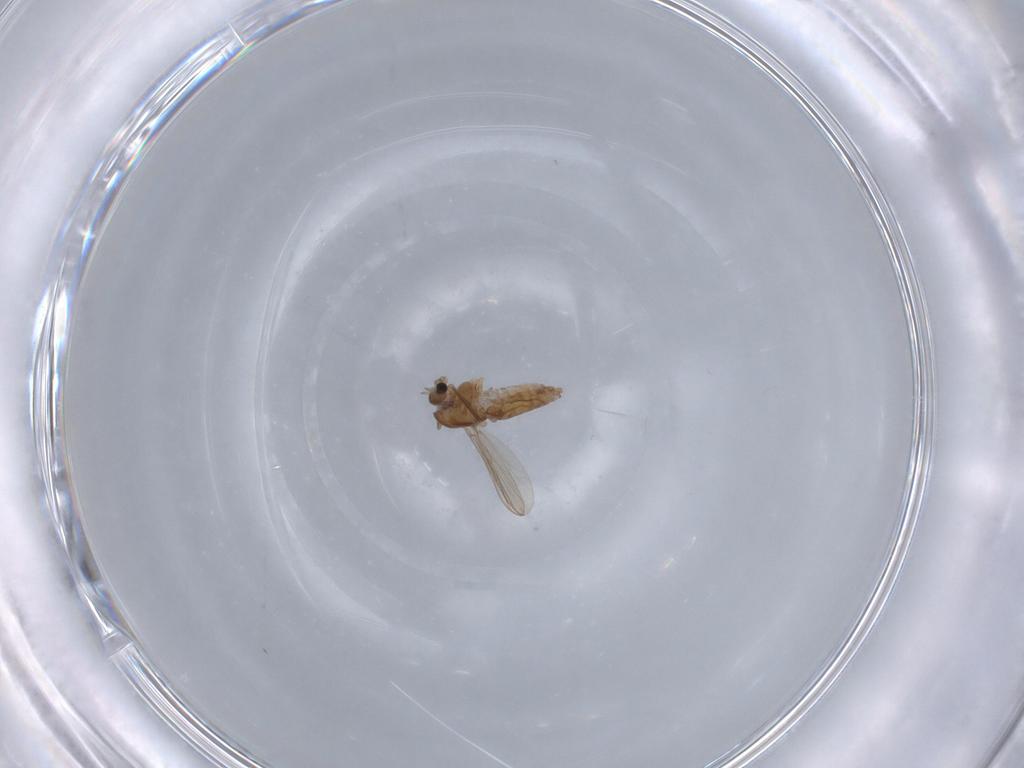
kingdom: Animalia
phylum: Arthropoda
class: Insecta
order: Diptera
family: Chironomidae
